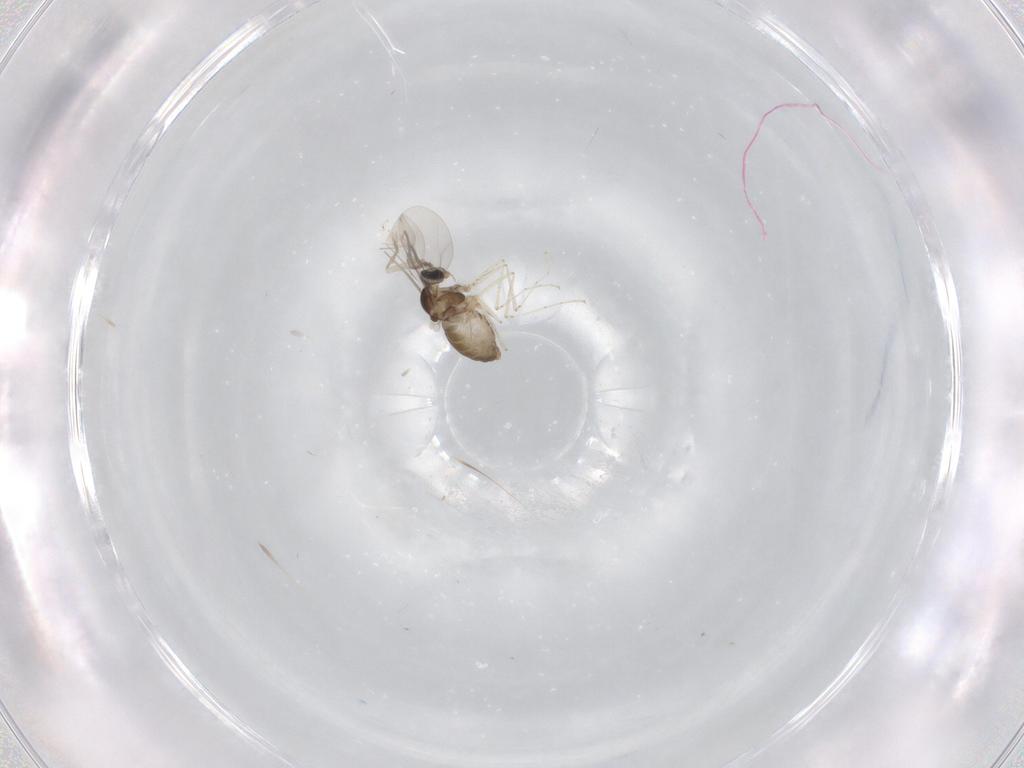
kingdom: Animalia
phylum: Arthropoda
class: Insecta
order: Diptera
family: Cecidomyiidae
